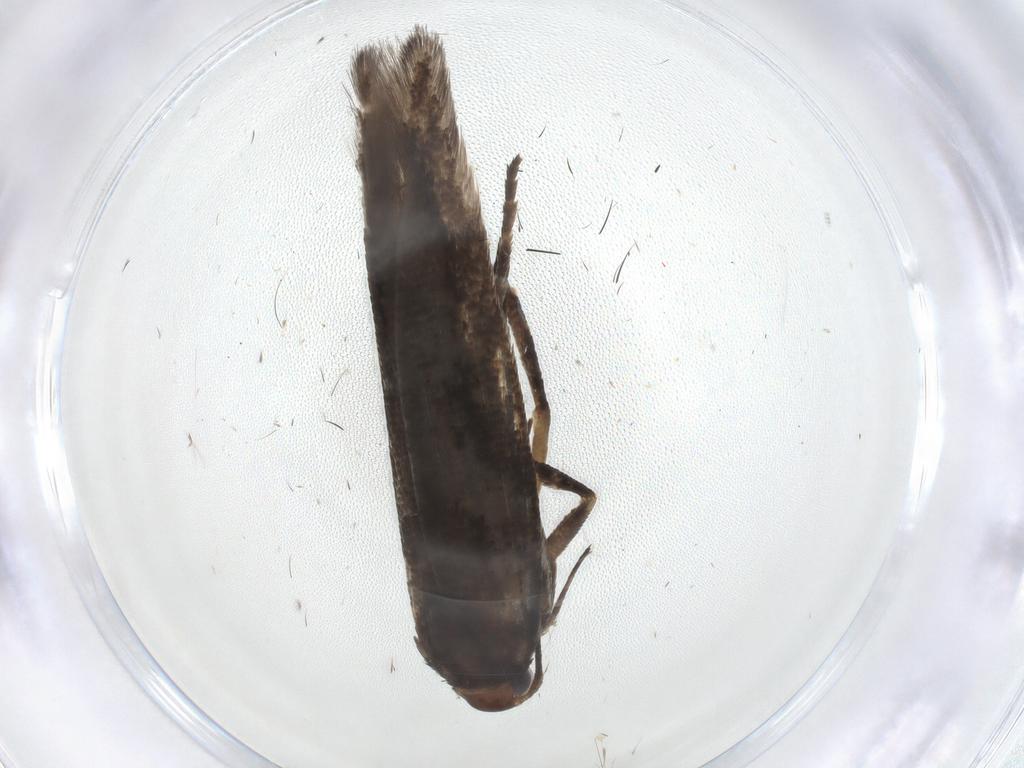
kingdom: Animalia
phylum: Arthropoda
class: Insecta
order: Lepidoptera
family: Gelechiidae
